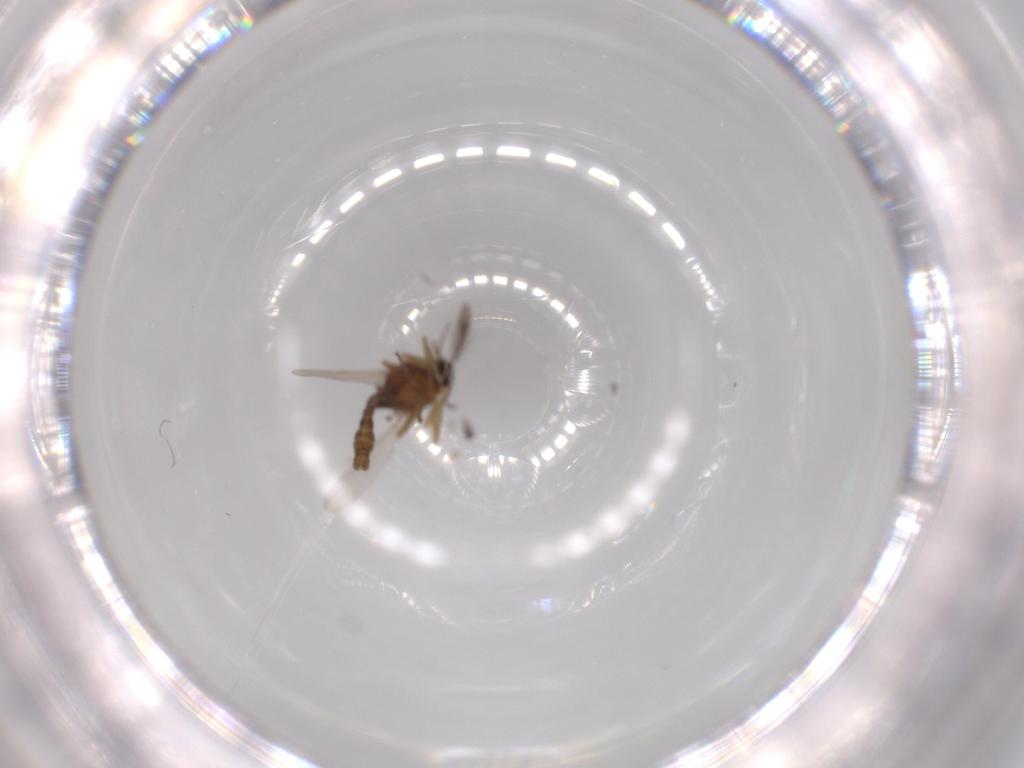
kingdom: Animalia
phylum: Arthropoda
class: Insecta
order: Diptera
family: Ceratopogonidae
